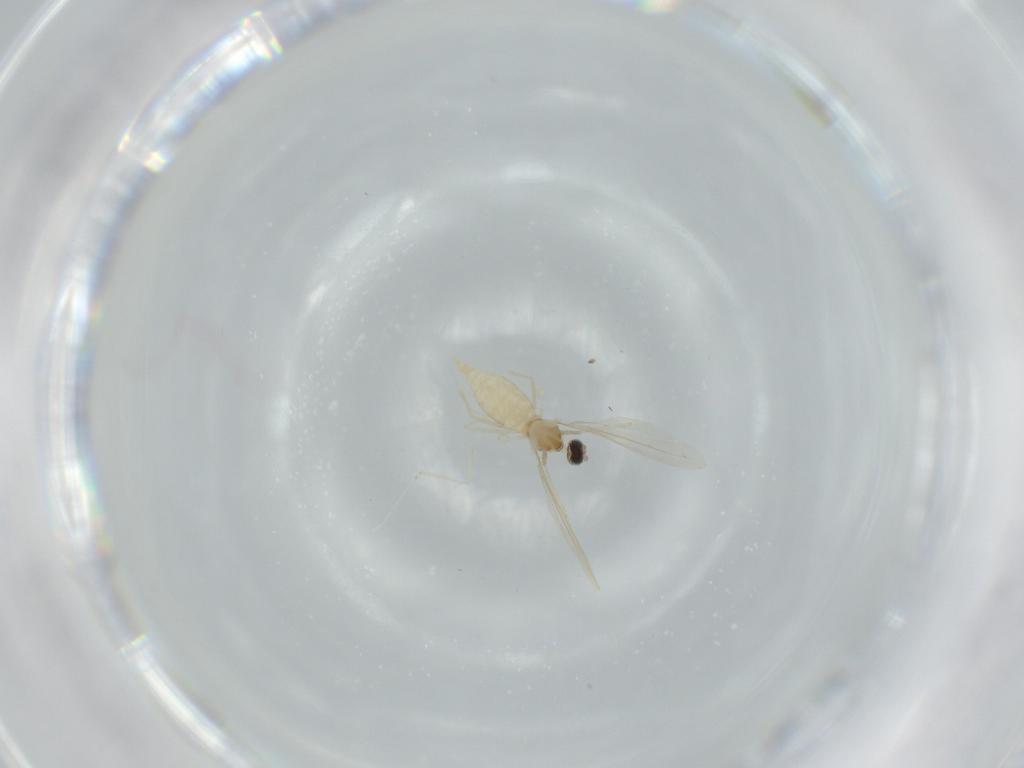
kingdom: Animalia
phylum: Arthropoda
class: Insecta
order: Diptera
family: Cecidomyiidae
